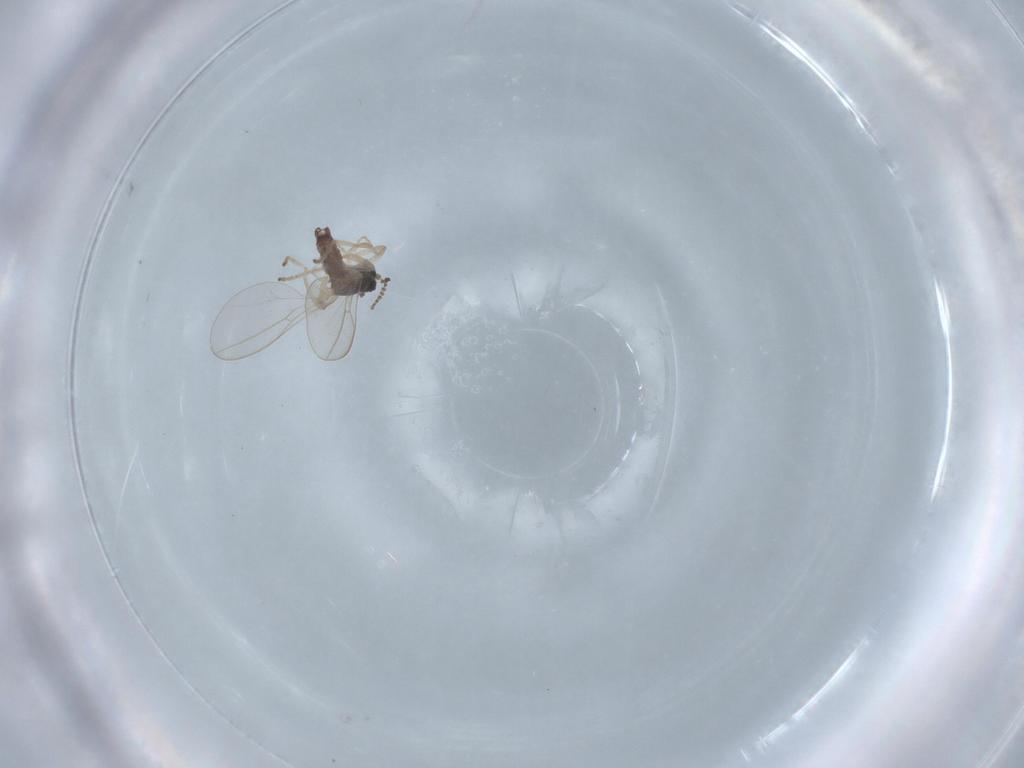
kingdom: Animalia
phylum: Arthropoda
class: Insecta
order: Diptera
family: Cecidomyiidae
